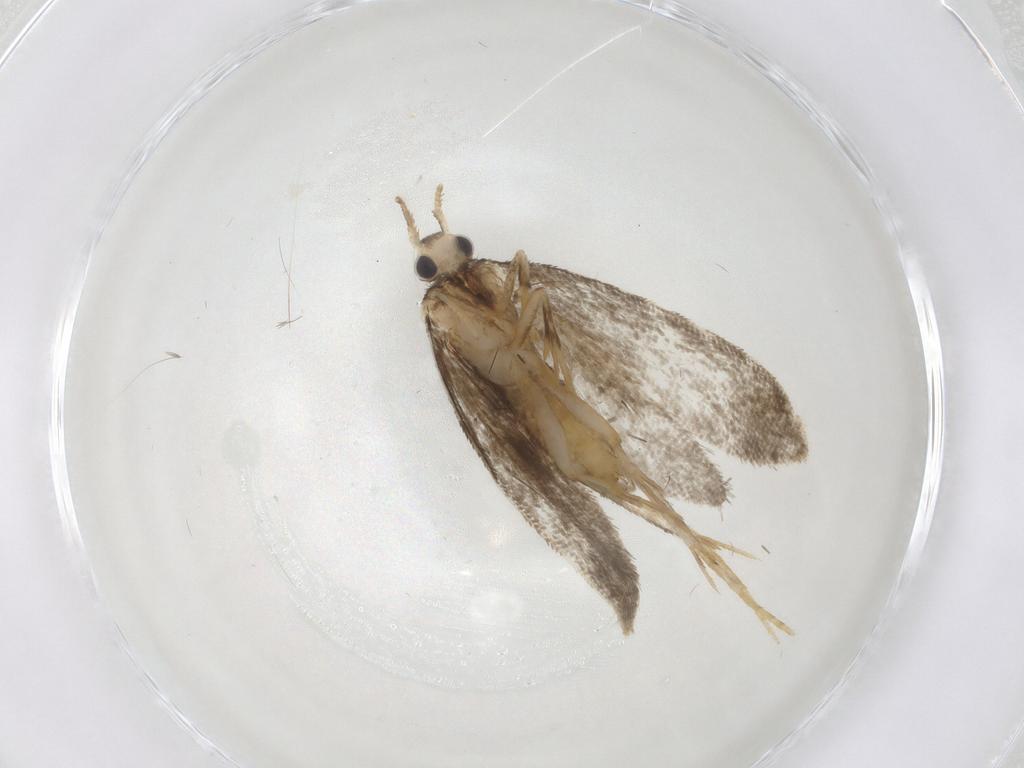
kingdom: Animalia
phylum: Arthropoda
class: Insecta
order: Lepidoptera
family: Psychidae
